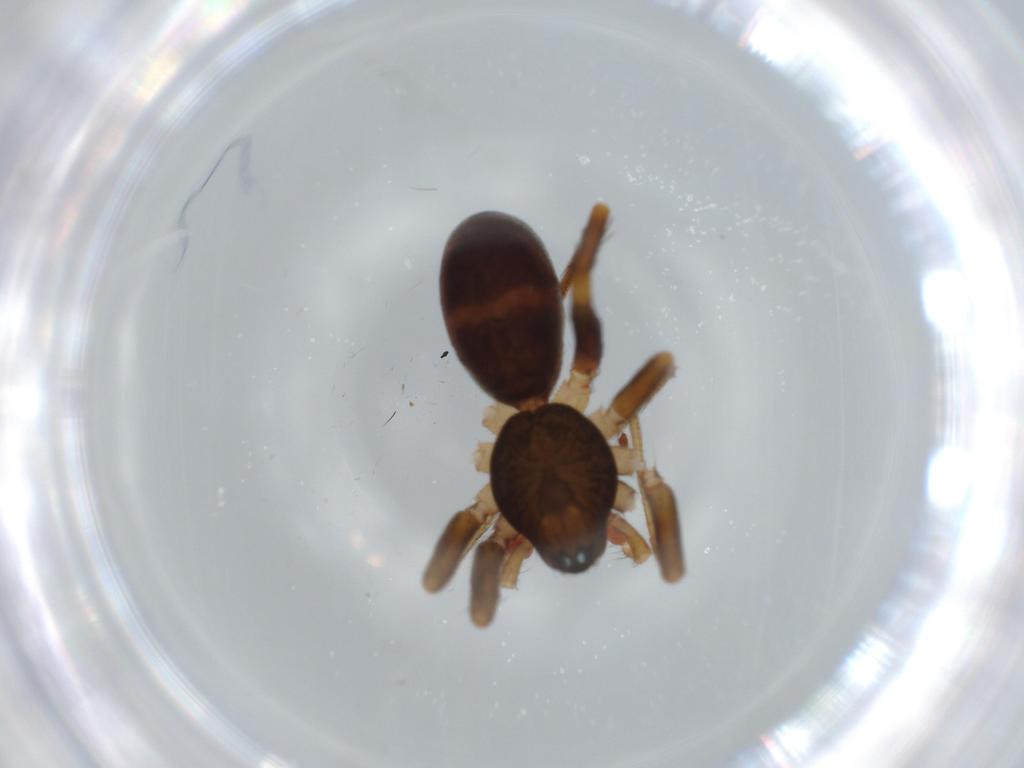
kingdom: Animalia
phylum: Arthropoda
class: Arachnida
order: Araneae
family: Corinnidae
